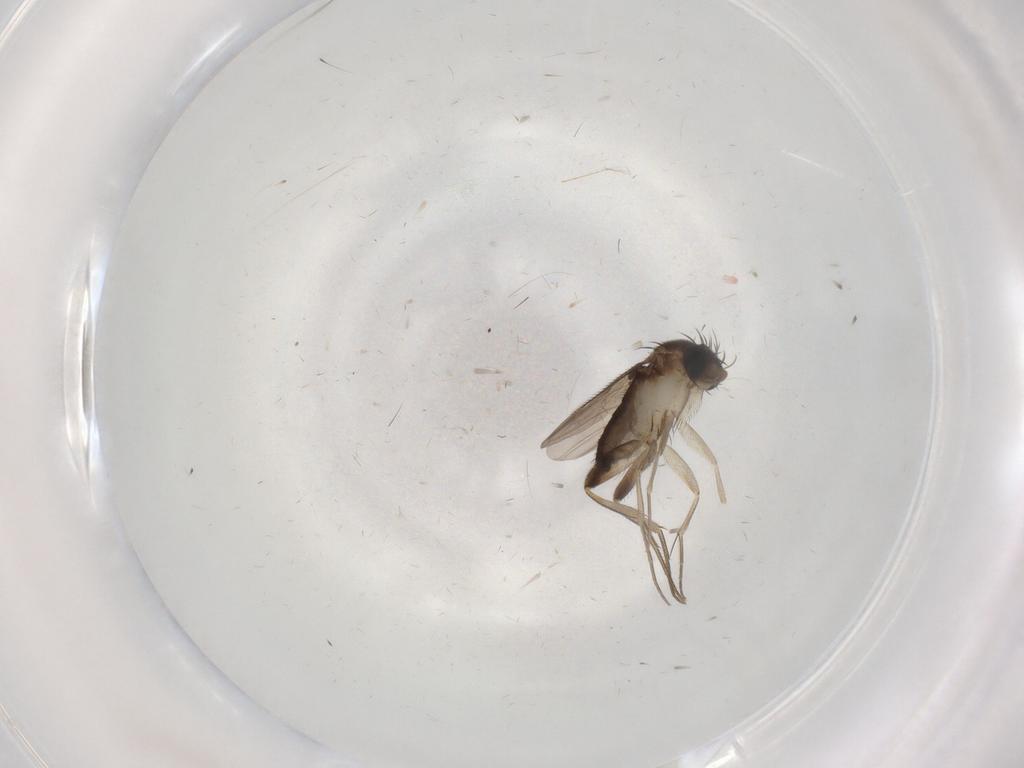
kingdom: Animalia
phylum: Arthropoda
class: Insecta
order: Diptera
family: Phoridae
